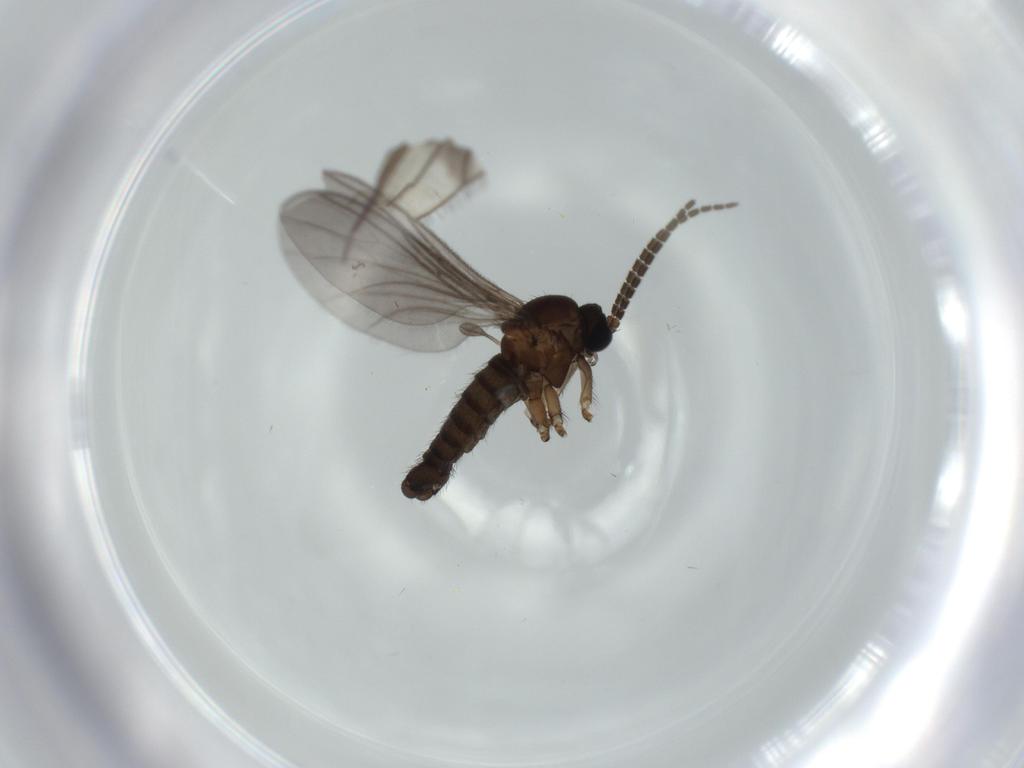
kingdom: Animalia
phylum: Arthropoda
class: Insecta
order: Diptera
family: Sciaridae
